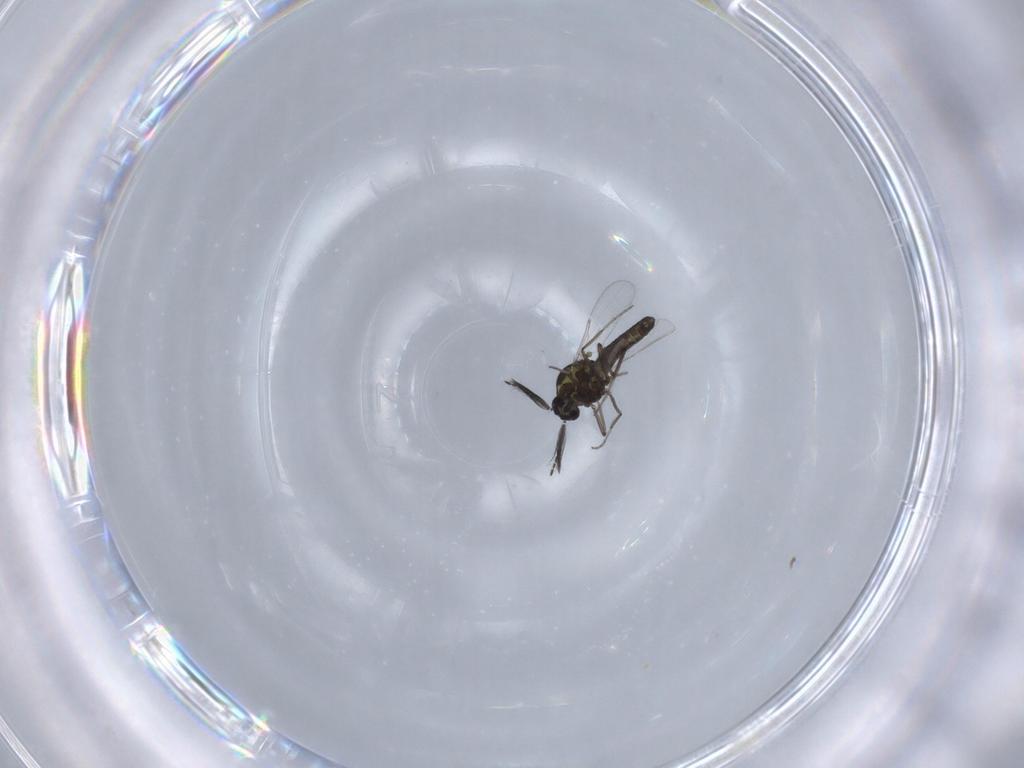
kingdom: Animalia
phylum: Arthropoda
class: Insecta
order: Diptera
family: Ceratopogonidae
